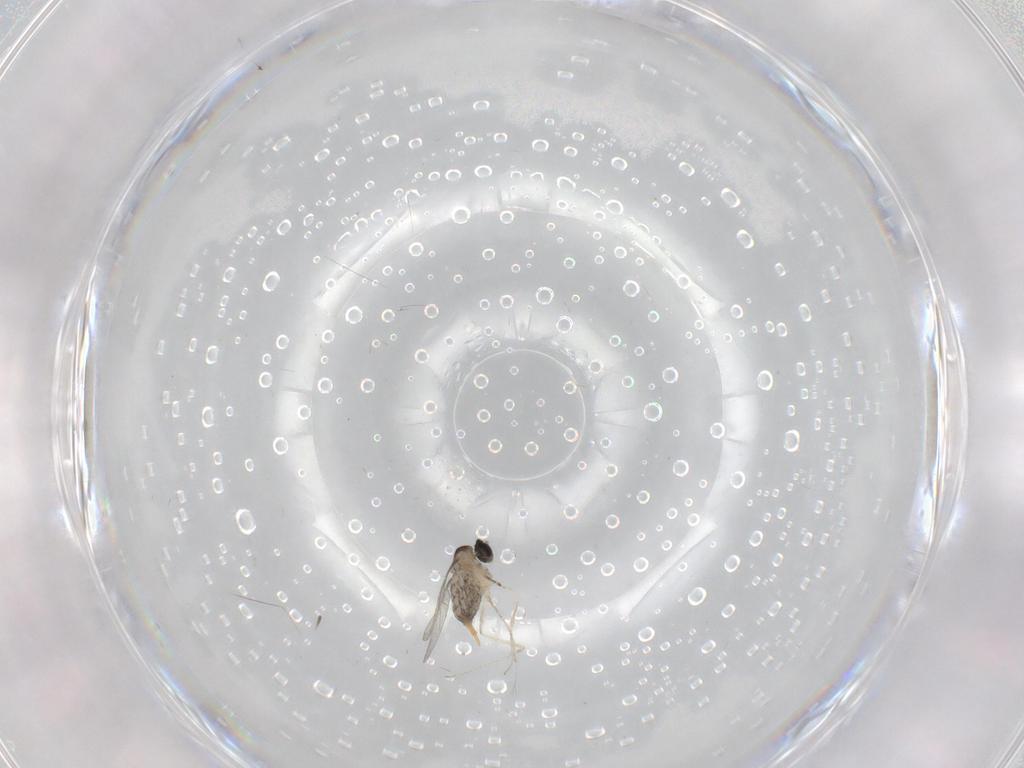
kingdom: Animalia
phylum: Arthropoda
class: Insecta
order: Diptera
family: Cecidomyiidae
